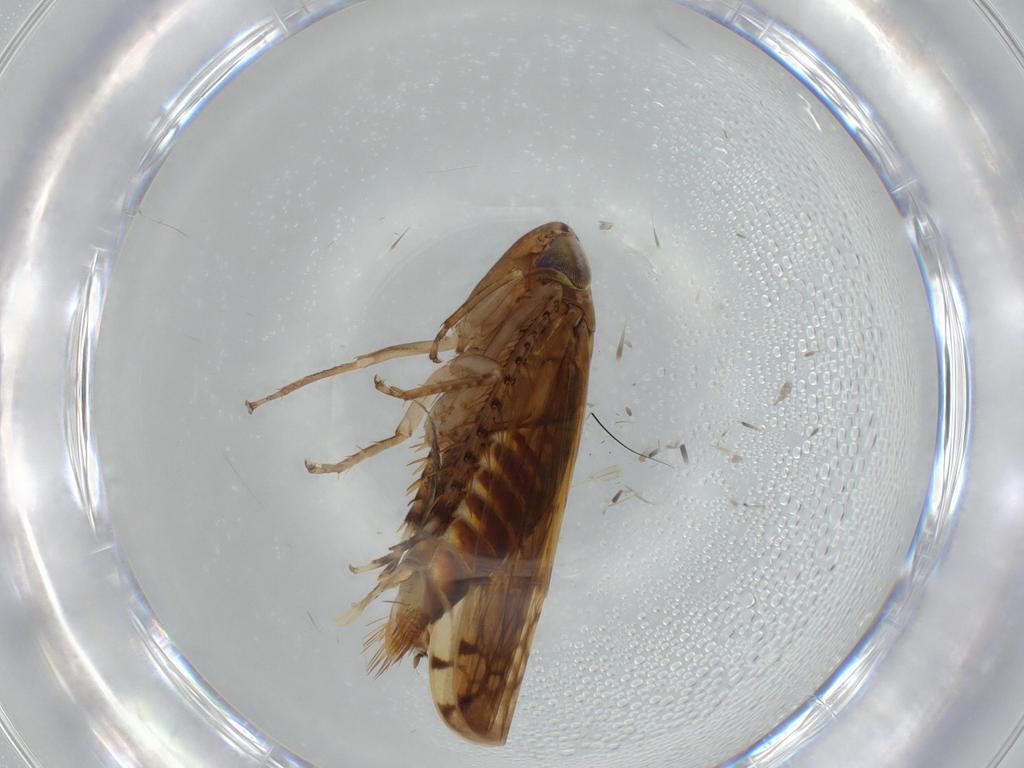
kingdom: Animalia
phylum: Arthropoda
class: Insecta
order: Hemiptera
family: Cicadellidae
